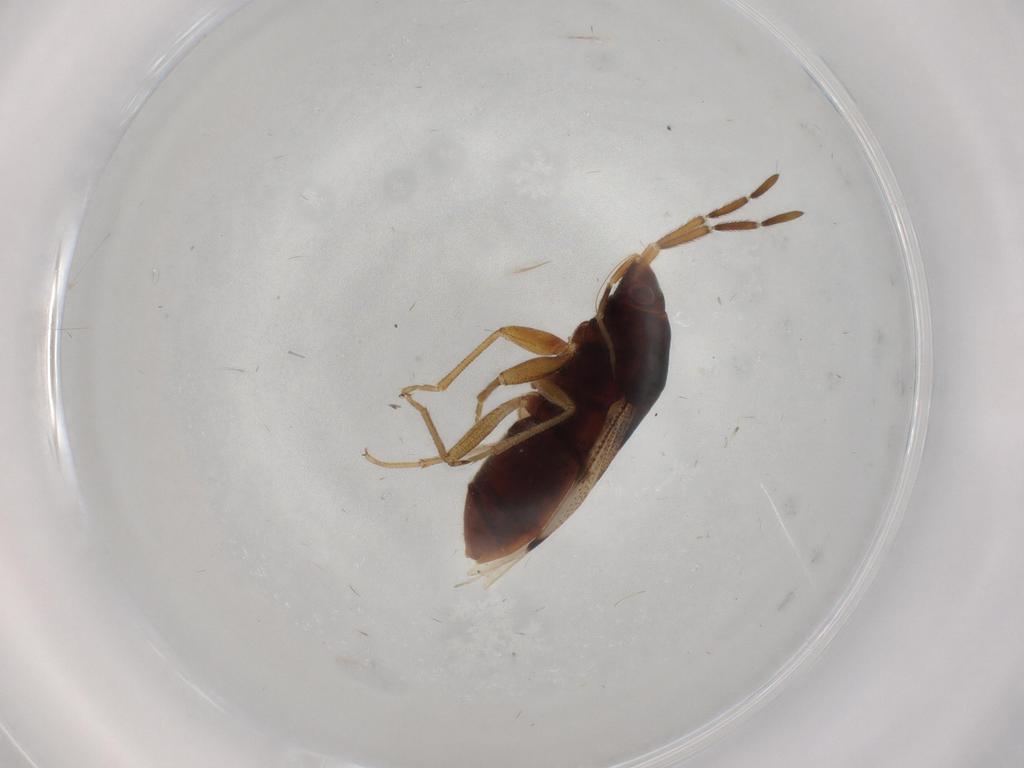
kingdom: Animalia
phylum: Arthropoda
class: Insecta
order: Hemiptera
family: Rhyparochromidae
